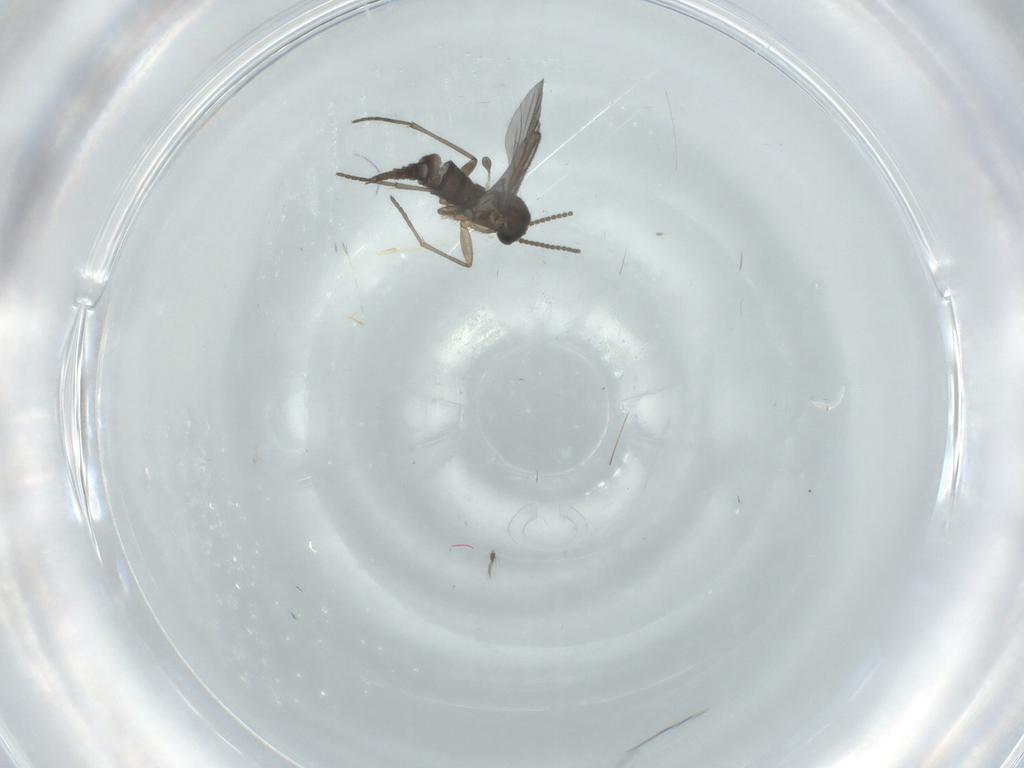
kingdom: Animalia
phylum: Arthropoda
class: Insecta
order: Diptera
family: Sciaridae
